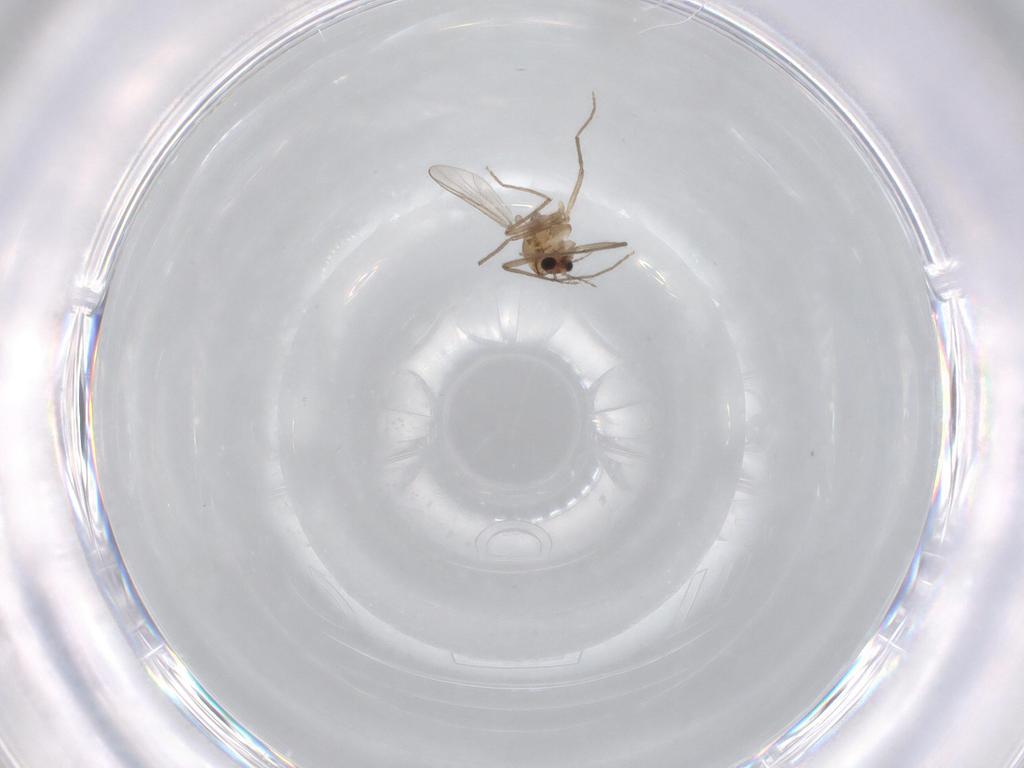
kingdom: Animalia
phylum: Arthropoda
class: Insecta
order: Diptera
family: Chironomidae
